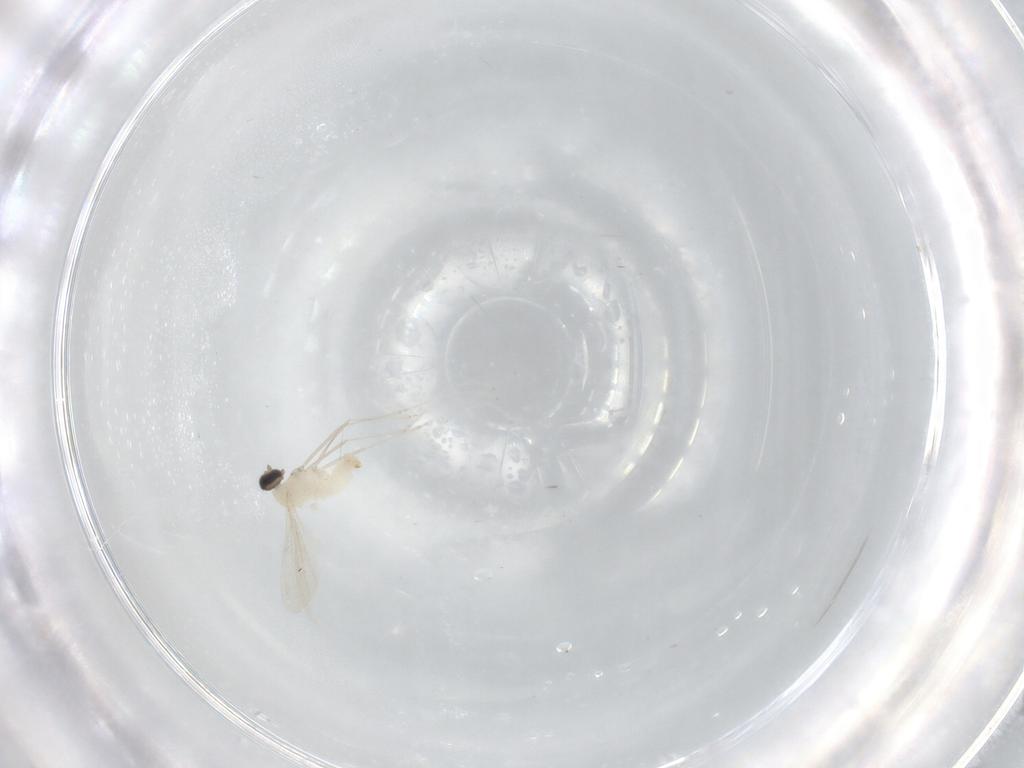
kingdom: Animalia
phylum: Arthropoda
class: Insecta
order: Diptera
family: Cecidomyiidae
